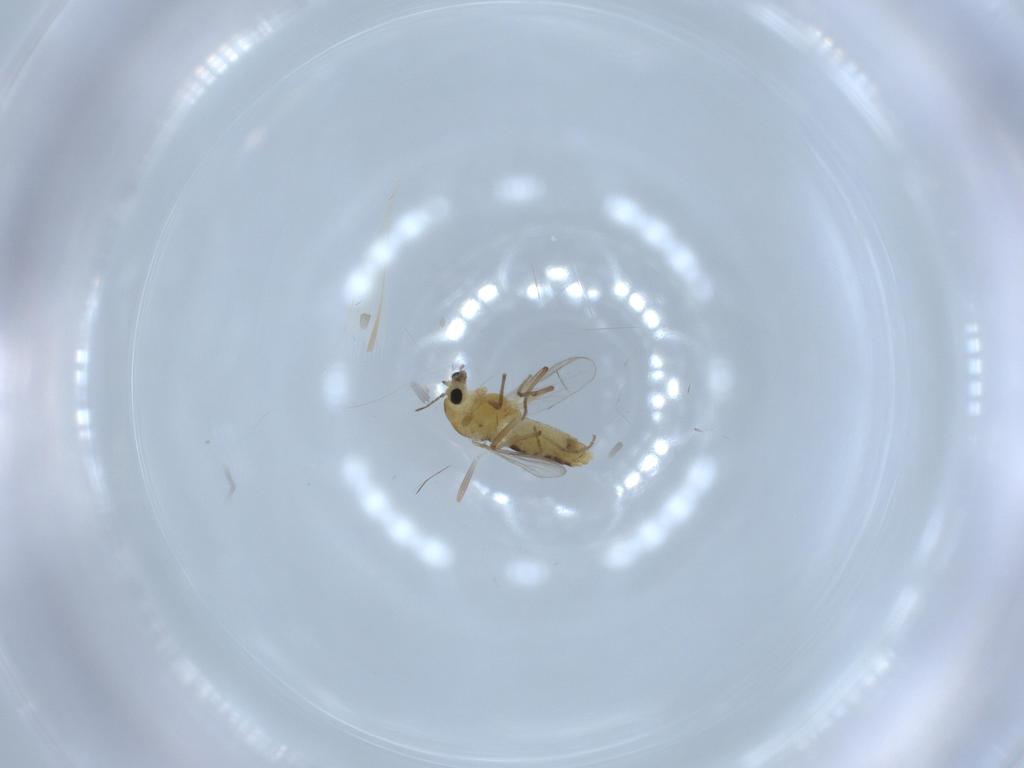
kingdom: Animalia
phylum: Arthropoda
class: Insecta
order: Diptera
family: Chironomidae
